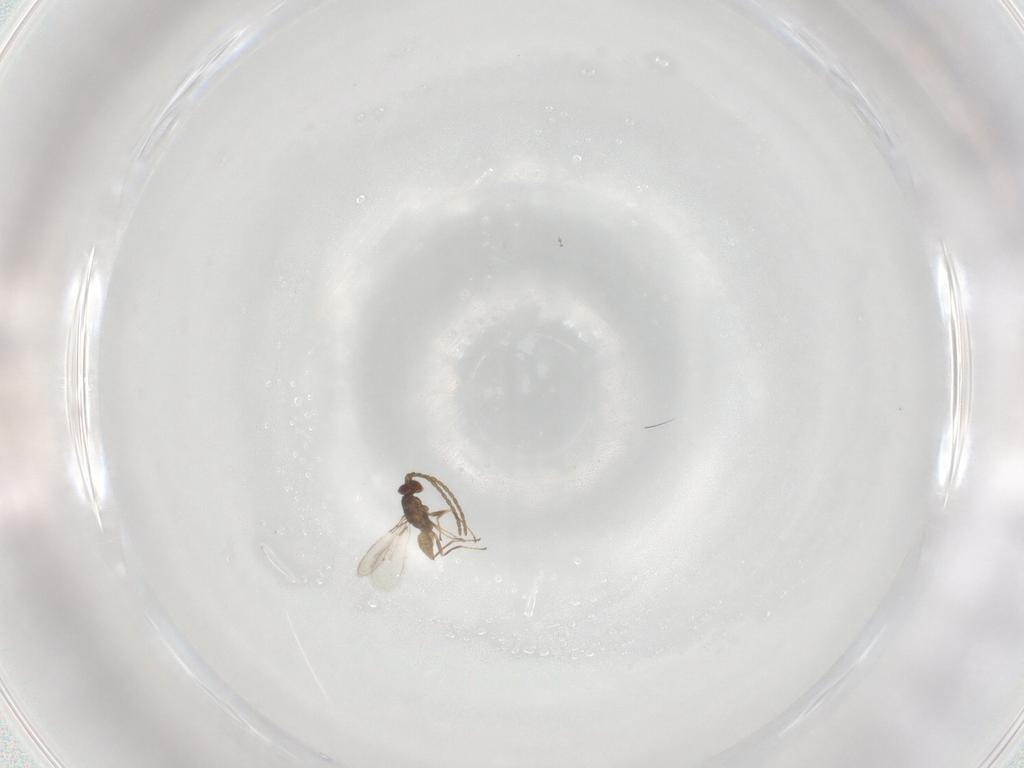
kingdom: Animalia
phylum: Arthropoda
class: Insecta
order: Hymenoptera
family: Mymaridae
